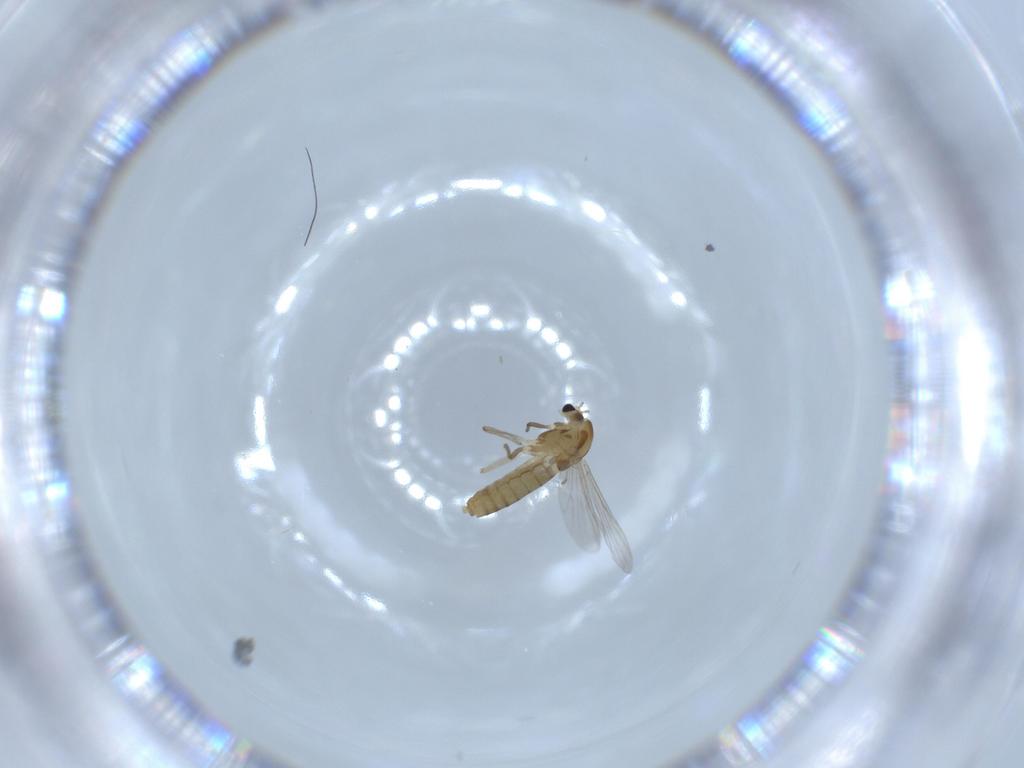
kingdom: Animalia
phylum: Arthropoda
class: Insecta
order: Diptera
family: Chironomidae
